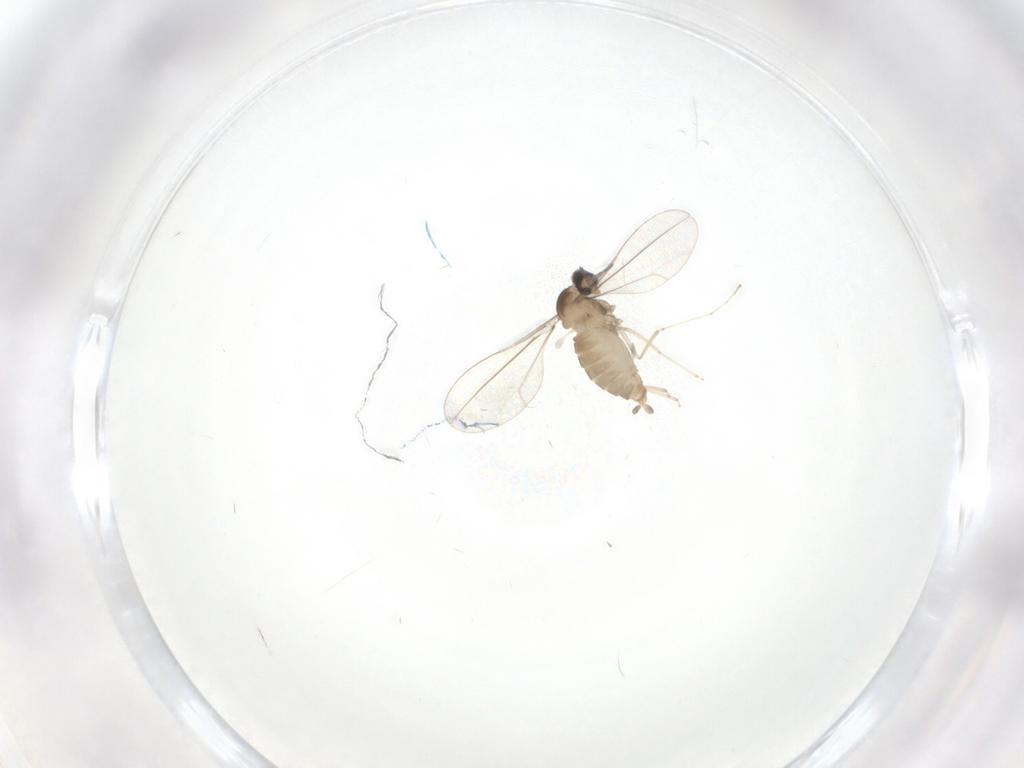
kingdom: Animalia
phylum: Arthropoda
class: Insecta
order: Diptera
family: Cecidomyiidae
